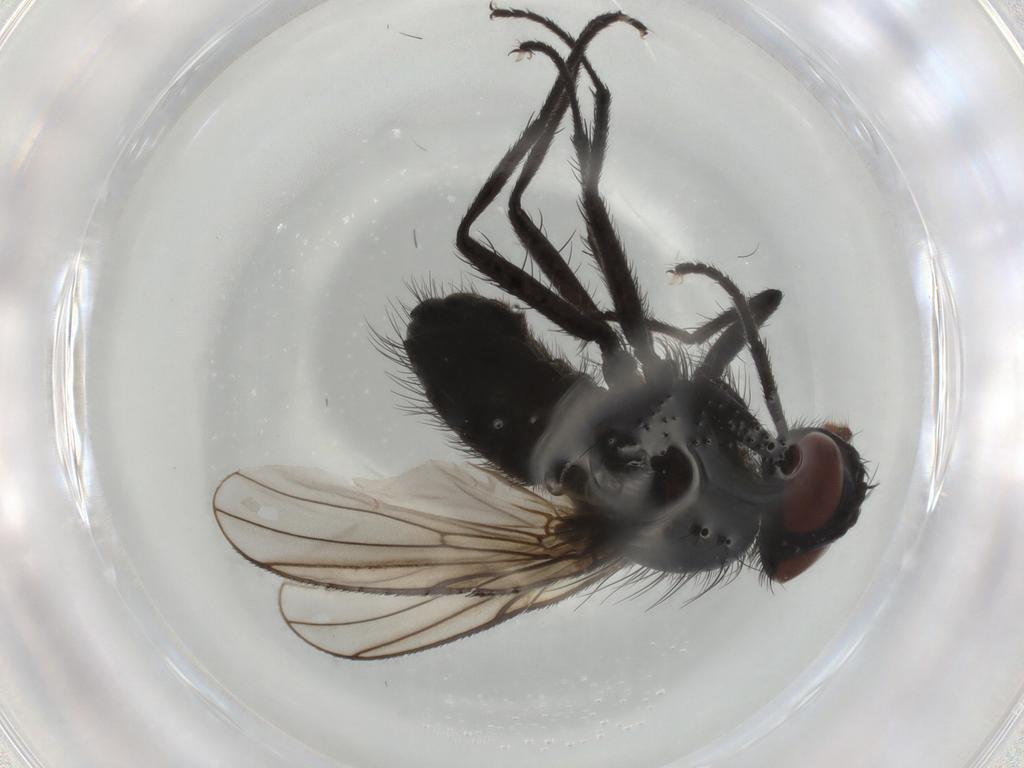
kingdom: Animalia
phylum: Arthropoda
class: Insecta
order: Diptera
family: Muscidae
